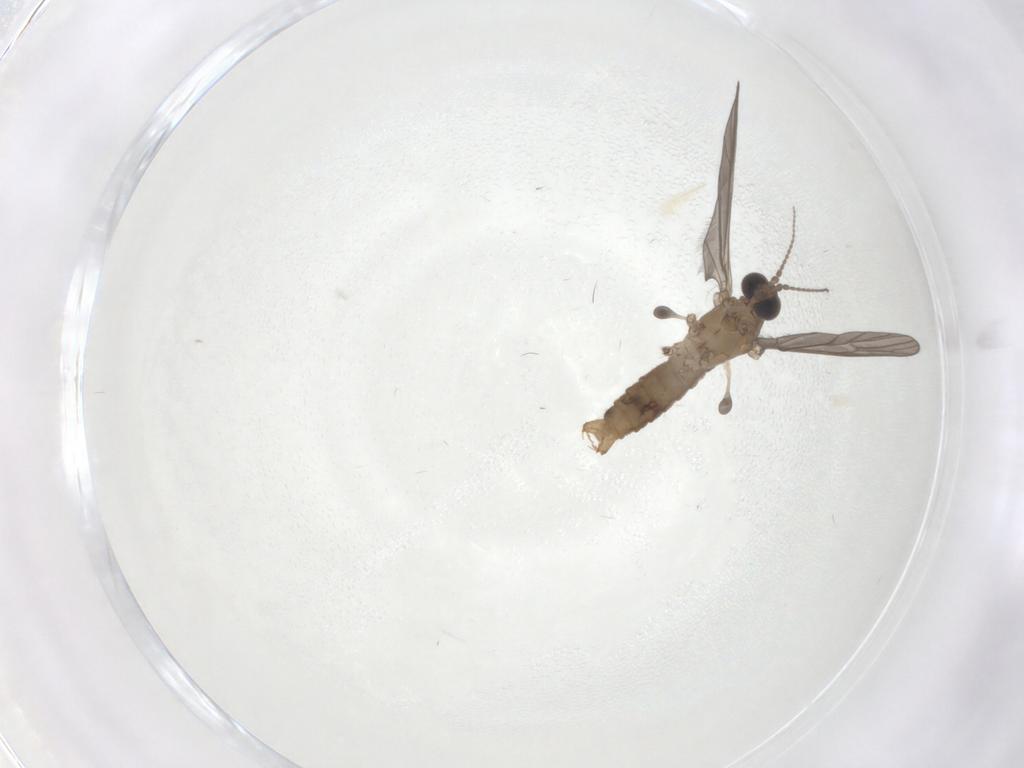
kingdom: Animalia
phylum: Arthropoda
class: Insecta
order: Diptera
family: Limoniidae
